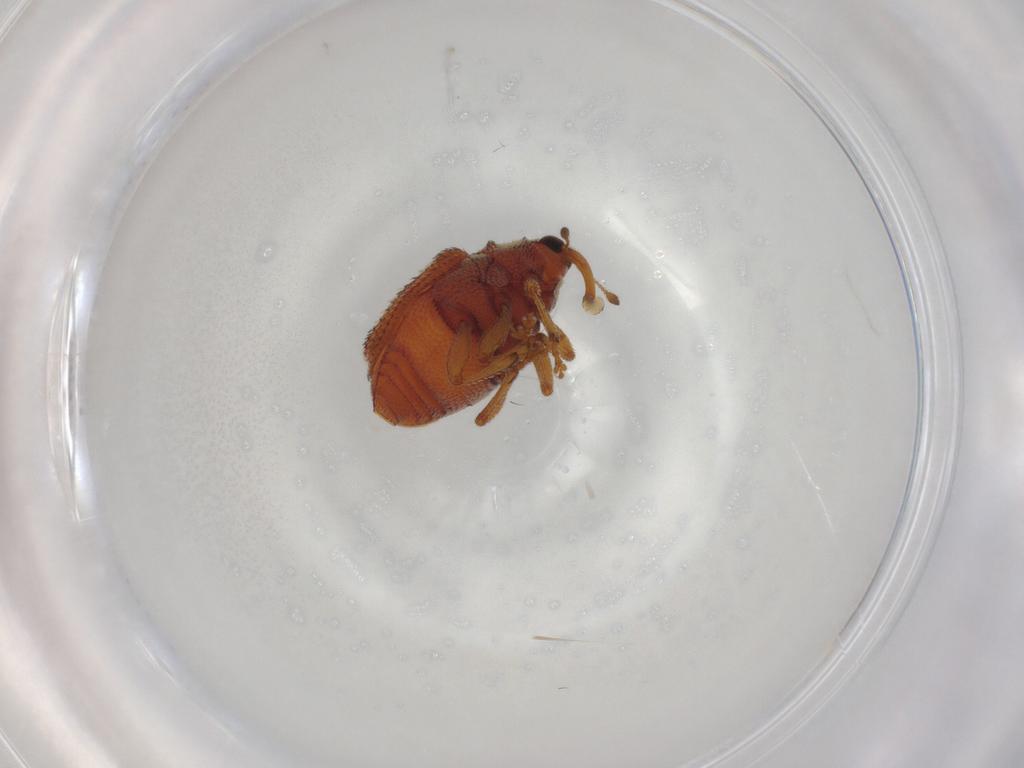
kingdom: Animalia
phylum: Arthropoda
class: Insecta
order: Coleoptera
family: Curculionidae
